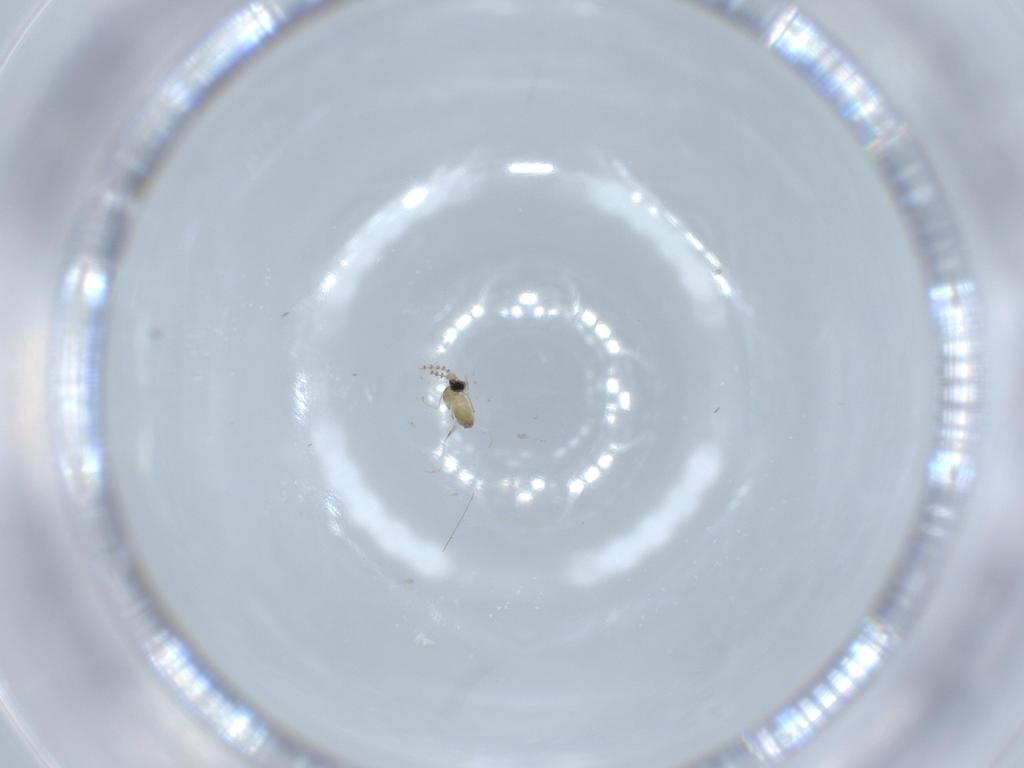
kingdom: Animalia
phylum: Arthropoda
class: Insecta
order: Diptera
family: Cecidomyiidae
